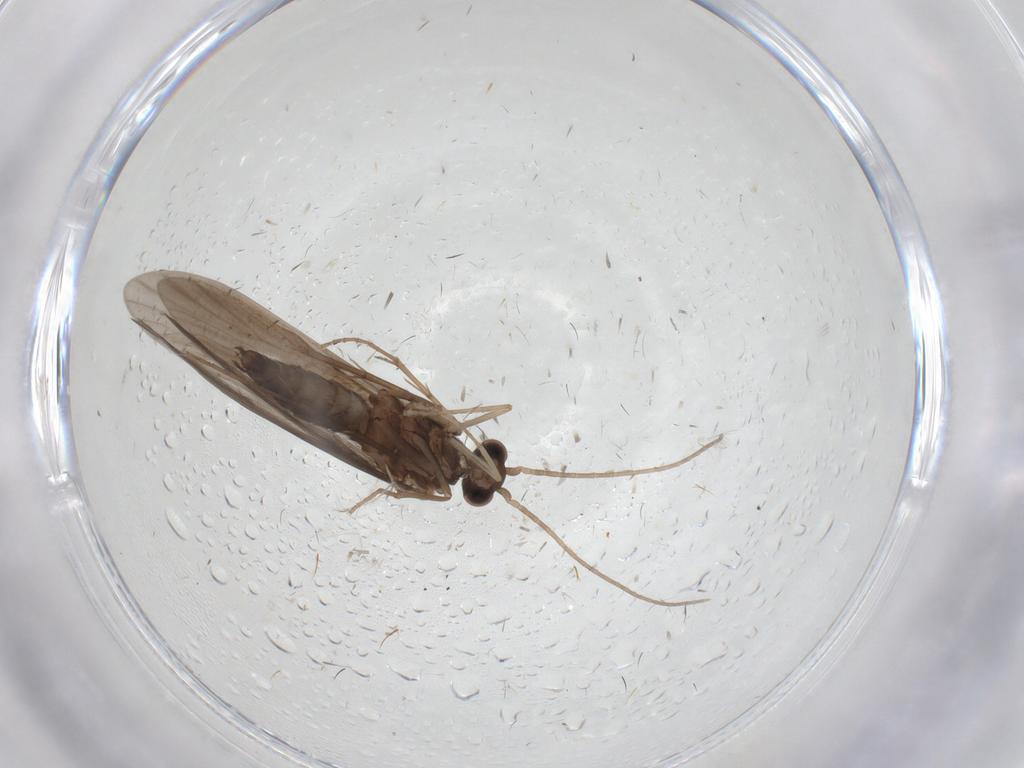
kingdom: Animalia
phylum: Arthropoda
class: Insecta
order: Trichoptera
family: Xiphocentronidae
